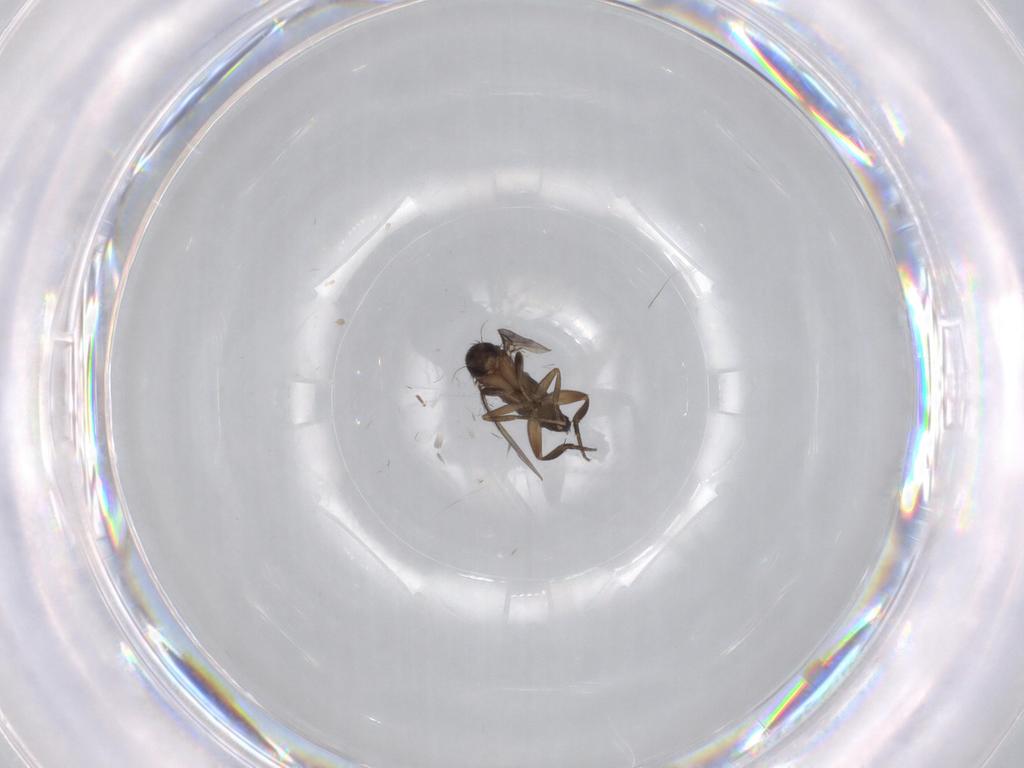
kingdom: Animalia
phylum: Arthropoda
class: Insecta
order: Diptera
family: Phoridae
